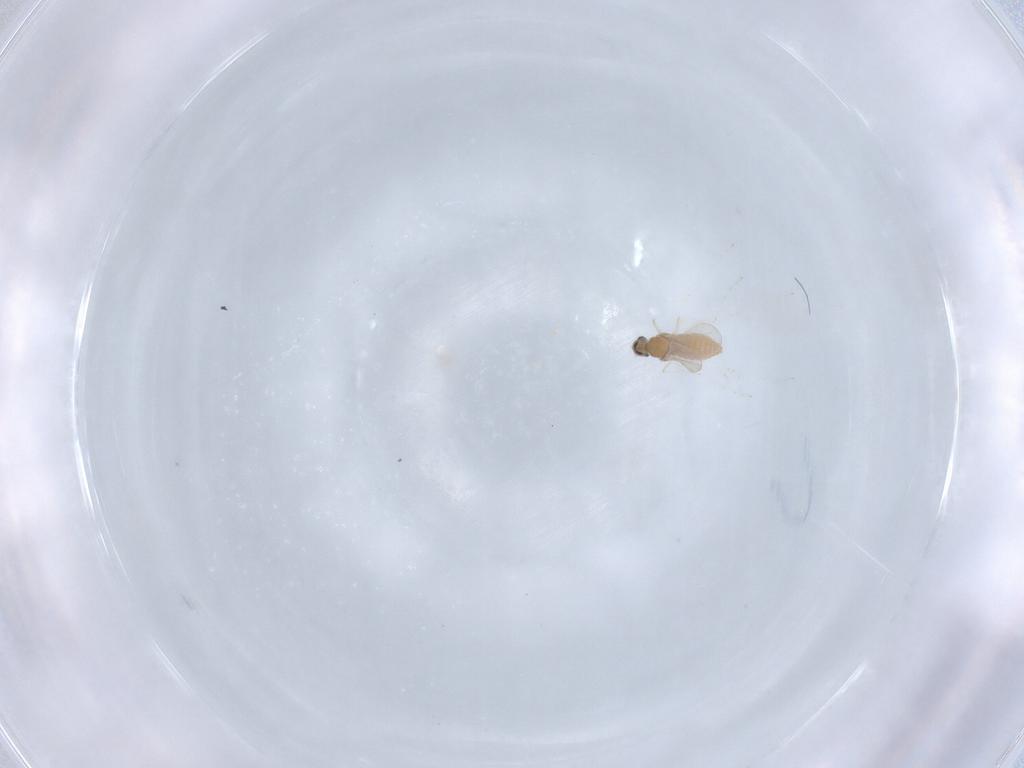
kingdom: Animalia
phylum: Arthropoda
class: Insecta
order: Diptera
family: Cecidomyiidae
